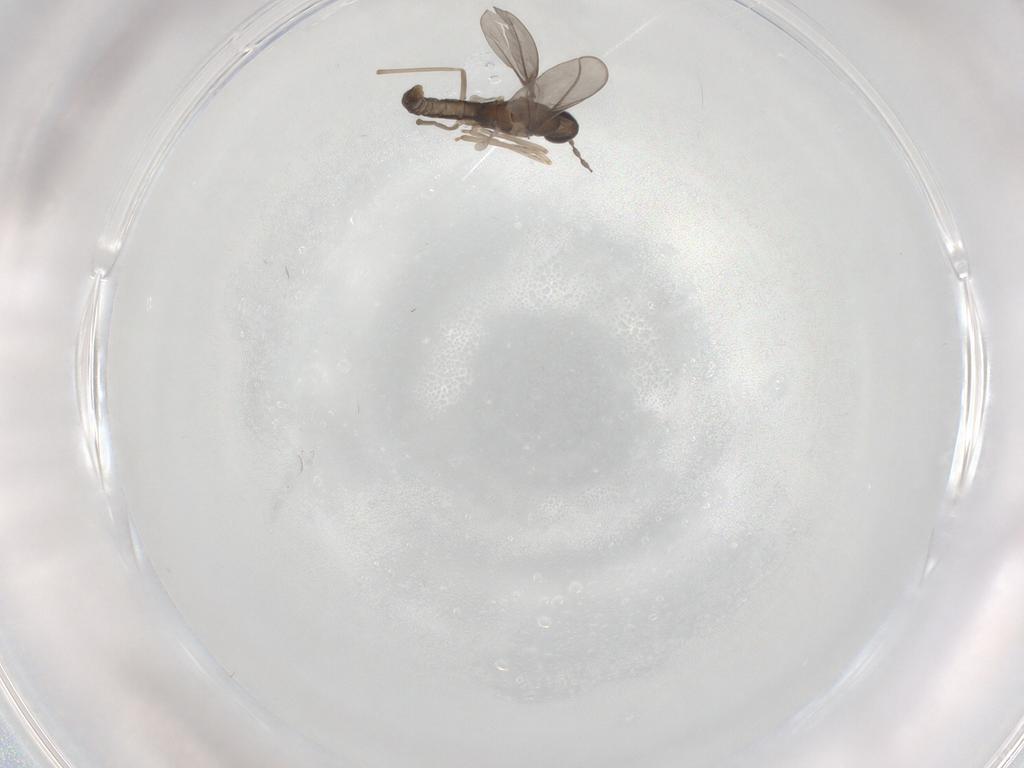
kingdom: Animalia
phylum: Arthropoda
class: Insecta
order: Diptera
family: Cecidomyiidae
